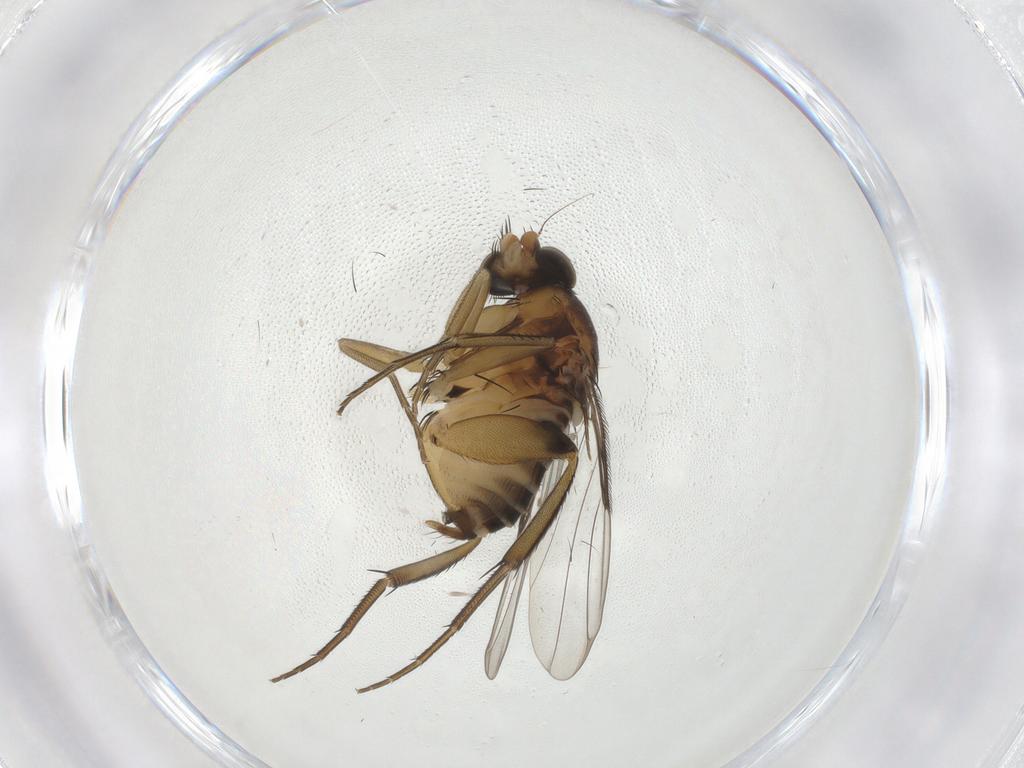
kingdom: Animalia
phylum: Arthropoda
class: Insecta
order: Diptera
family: Phoridae
